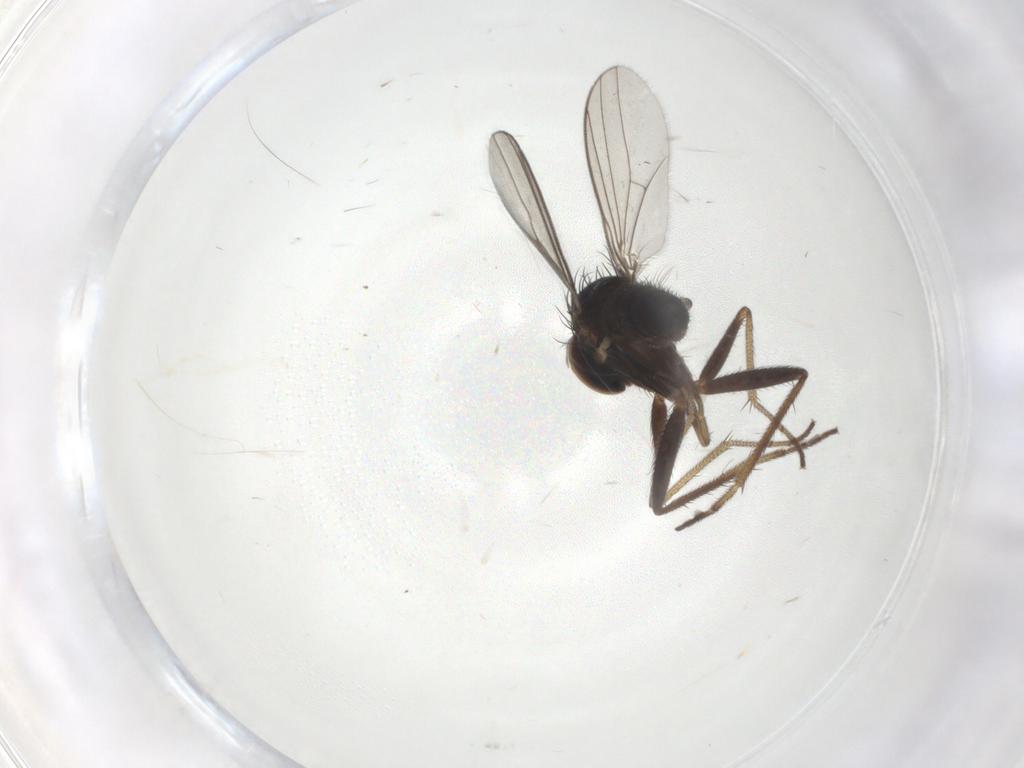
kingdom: Animalia
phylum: Arthropoda
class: Insecta
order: Diptera
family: Dolichopodidae
